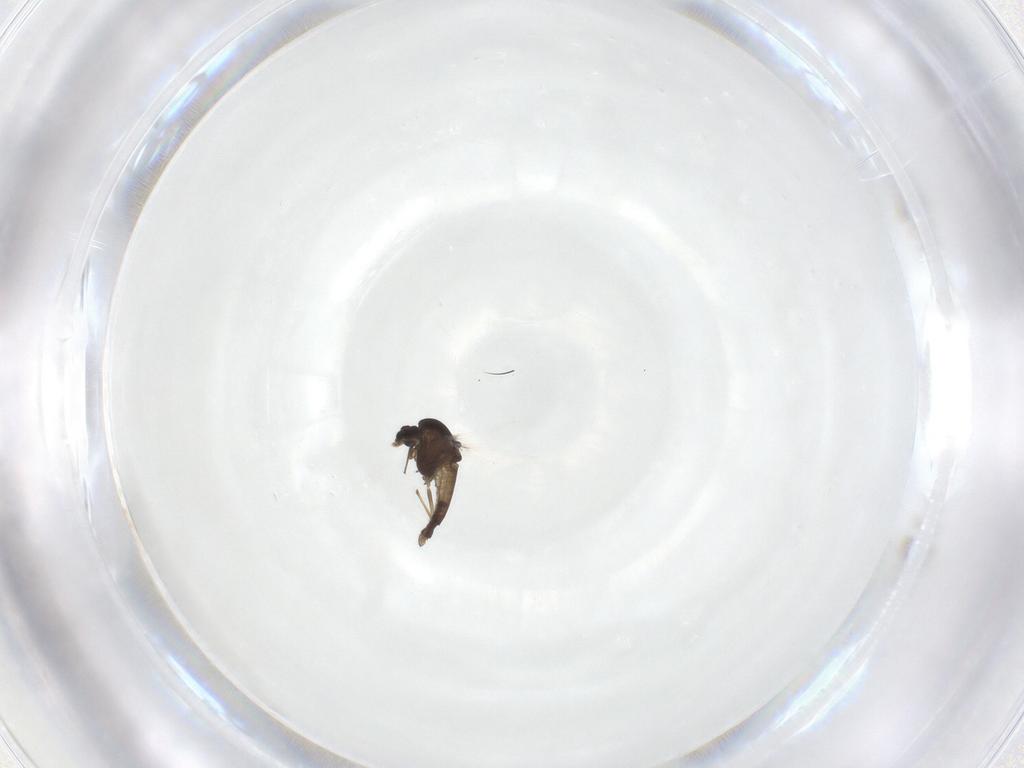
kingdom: Animalia
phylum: Arthropoda
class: Insecta
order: Diptera
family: Chironomidae
